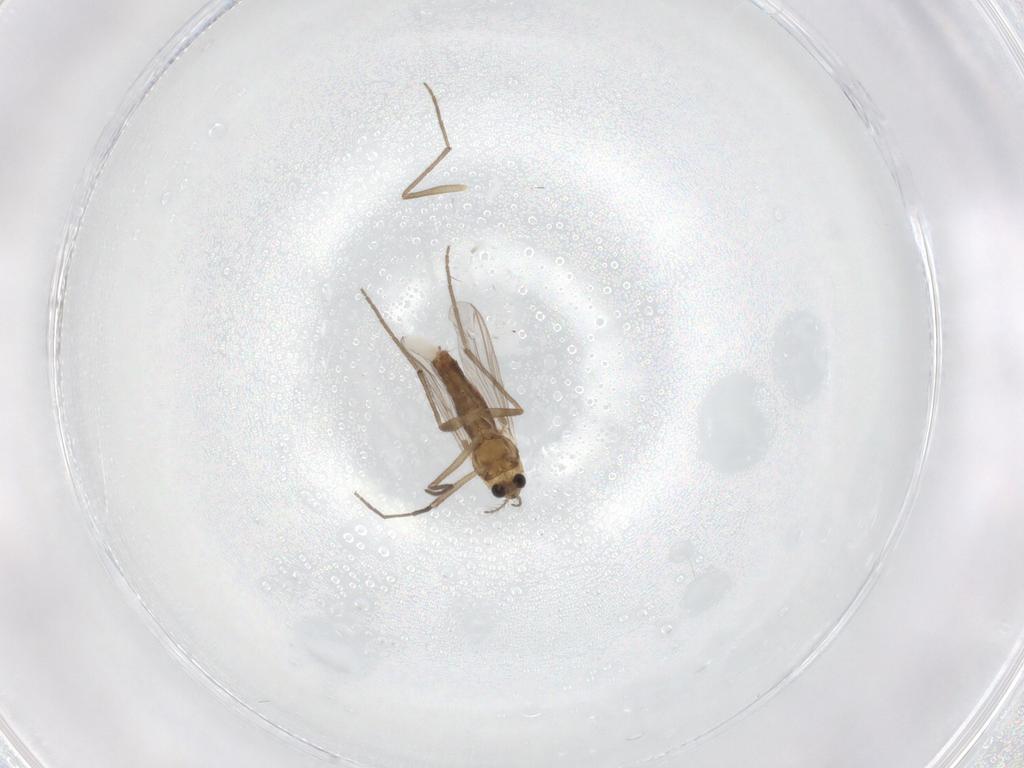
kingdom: Animalia
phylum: Arthropoda
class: Insecta
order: Diptera
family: Chironomidae
